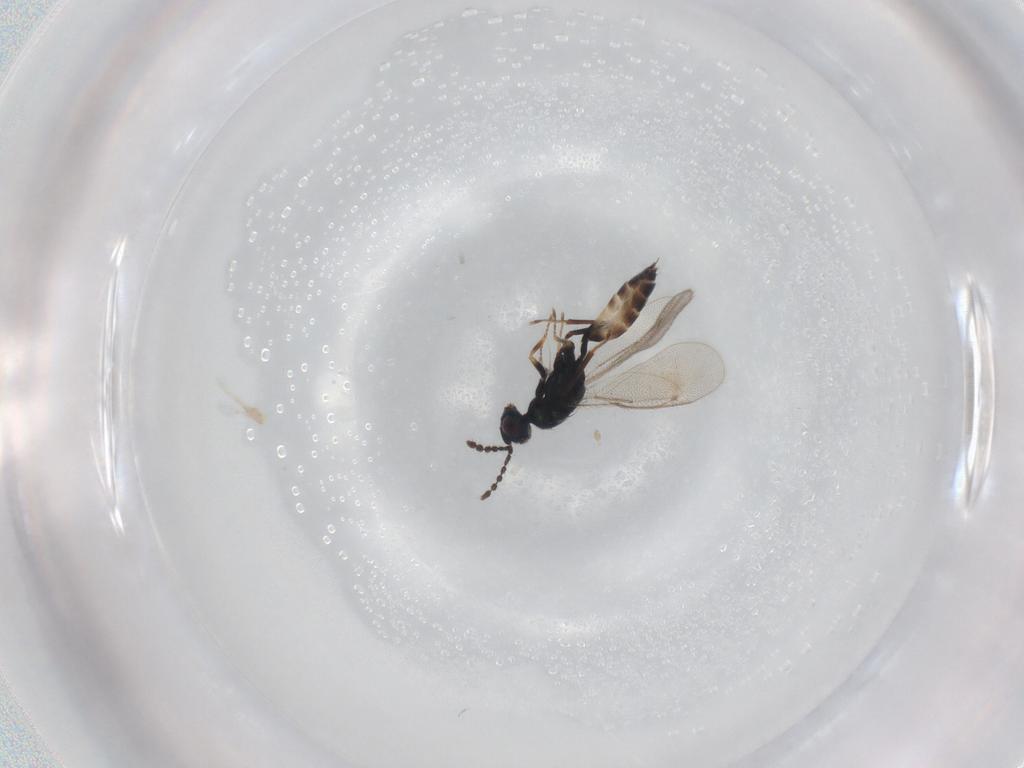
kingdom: Animalia
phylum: Arthropoda
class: Insecta
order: Hymenoptera
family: Eulophidae
